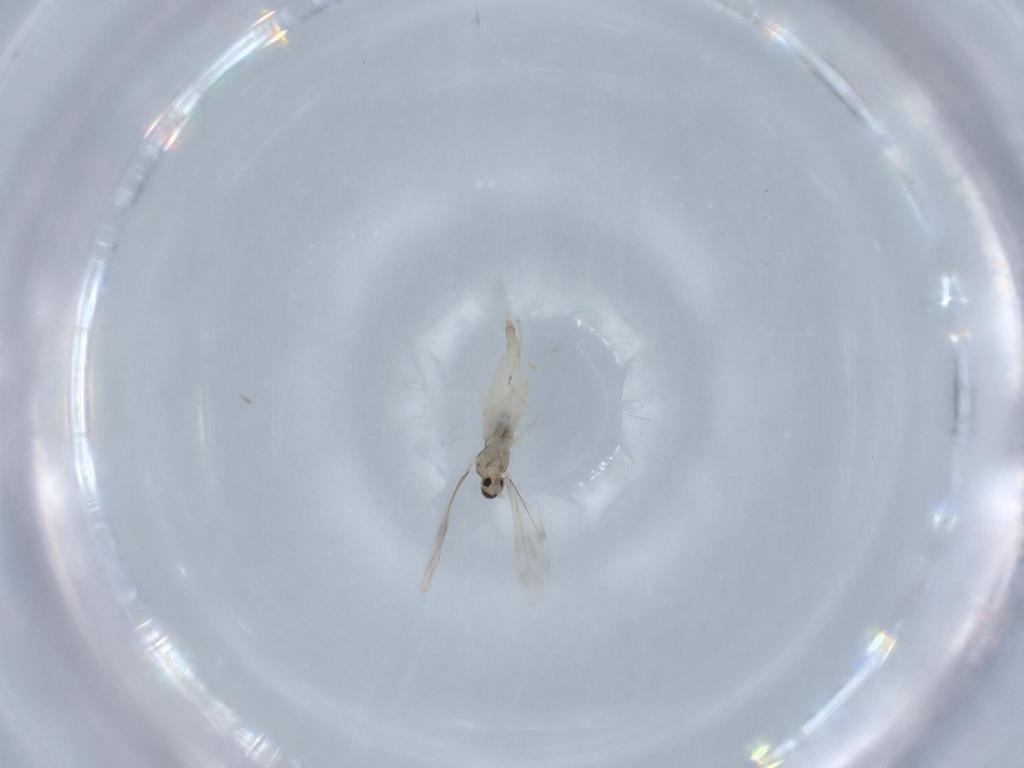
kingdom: Animalia
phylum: Arthropoda
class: Insecta
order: Diptera
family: Cecidomyiidae
